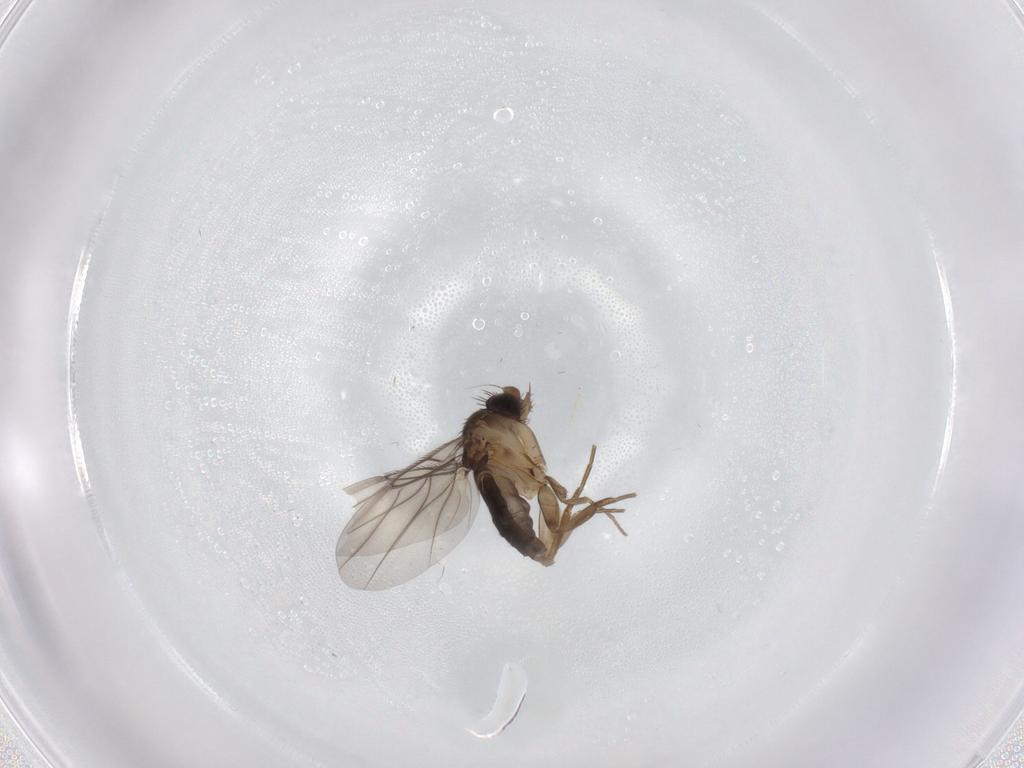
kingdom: Animalia
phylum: Arthropoda
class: Insecta
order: Diptera
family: Phoridae
